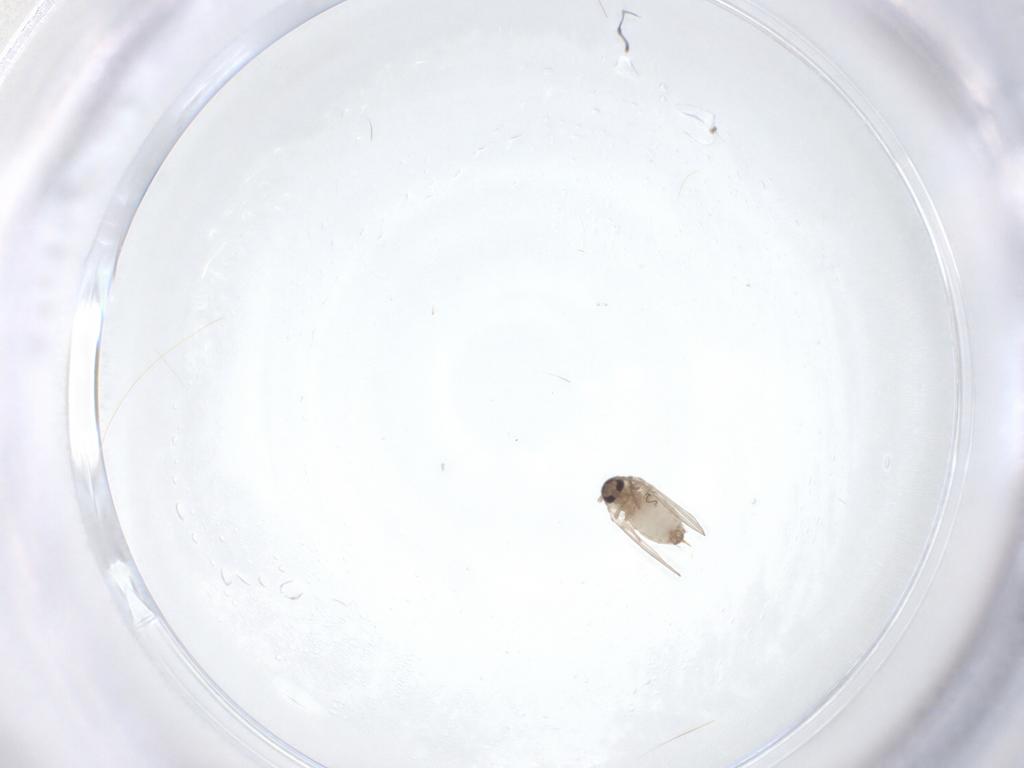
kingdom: Animalia
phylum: Arthropoda
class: Insecta
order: Diptera
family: Psychodidae
